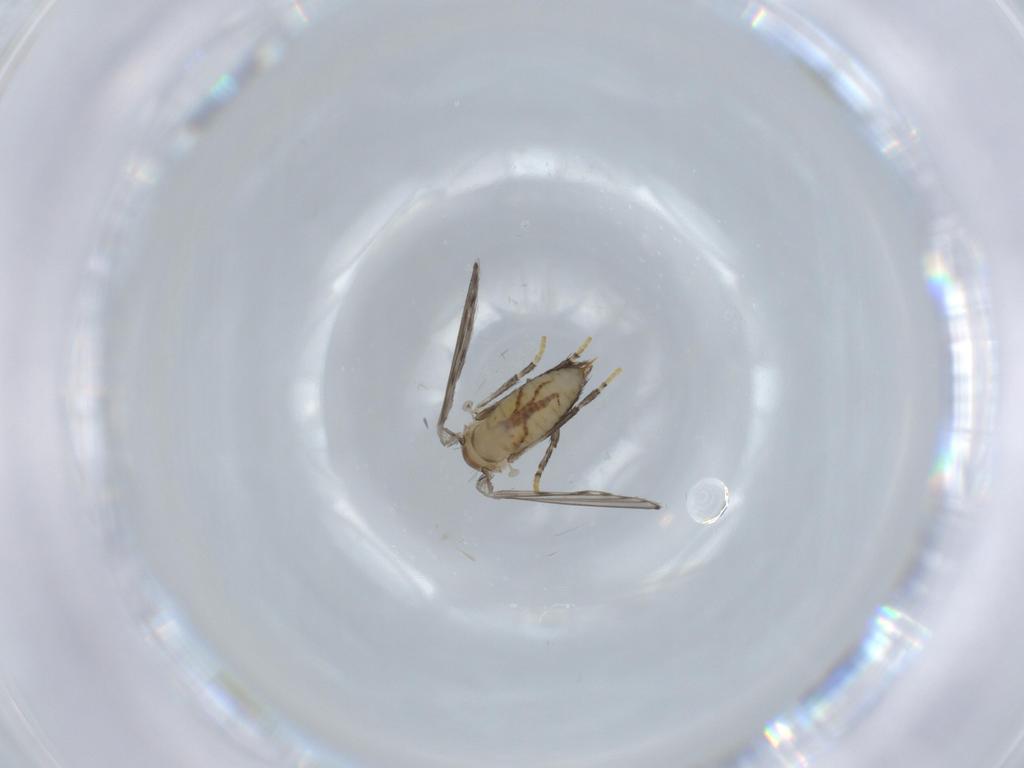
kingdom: Animalia
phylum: Arthropoda
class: Insecta
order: Diptera
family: Psychodidae
